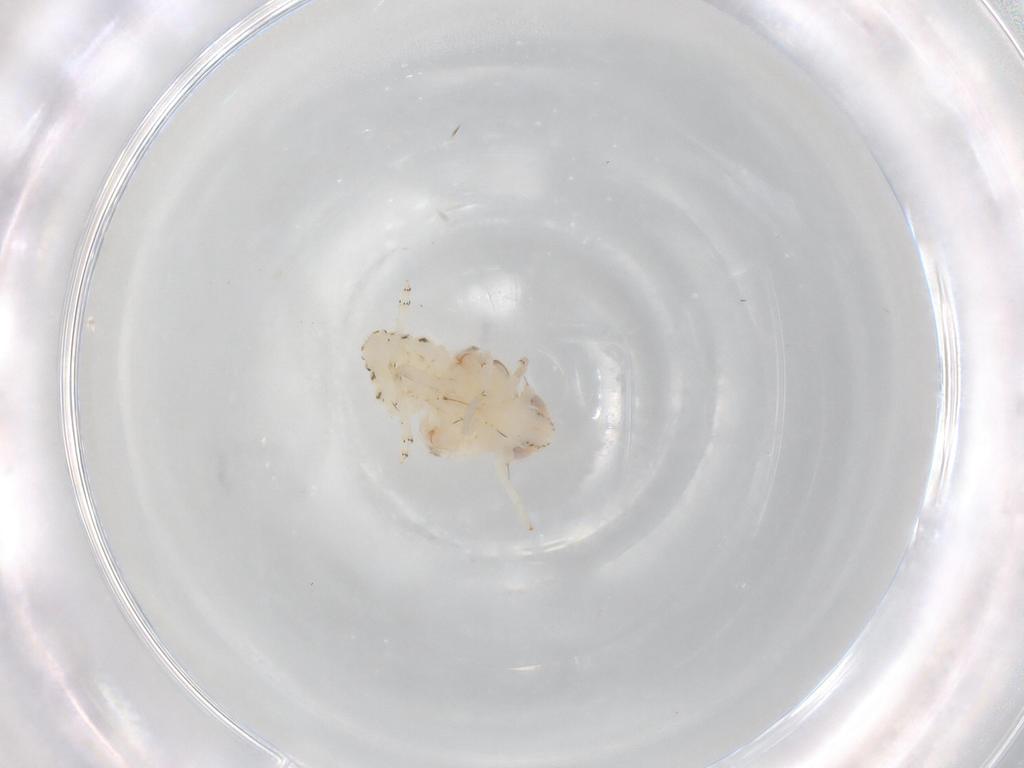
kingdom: Animalia
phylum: Arthropoda
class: Insecta
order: Hemiptera
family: Nogodinidae
